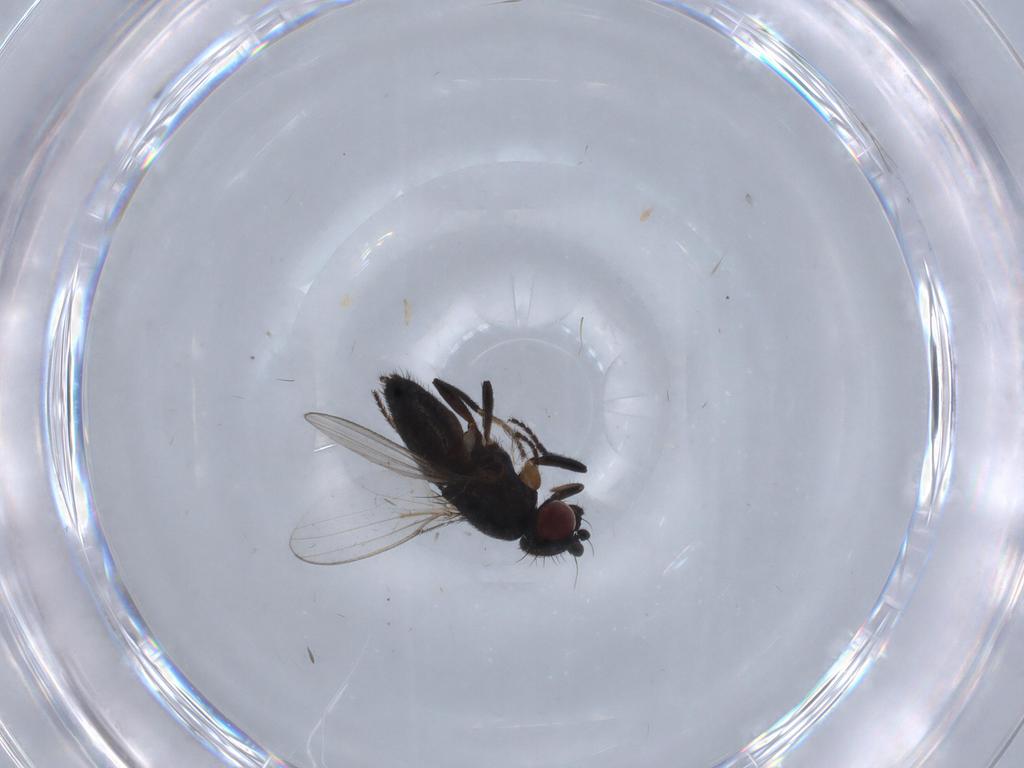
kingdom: Animalia
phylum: Arthropoda
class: Insecta
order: Diptera
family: Milichiidae
